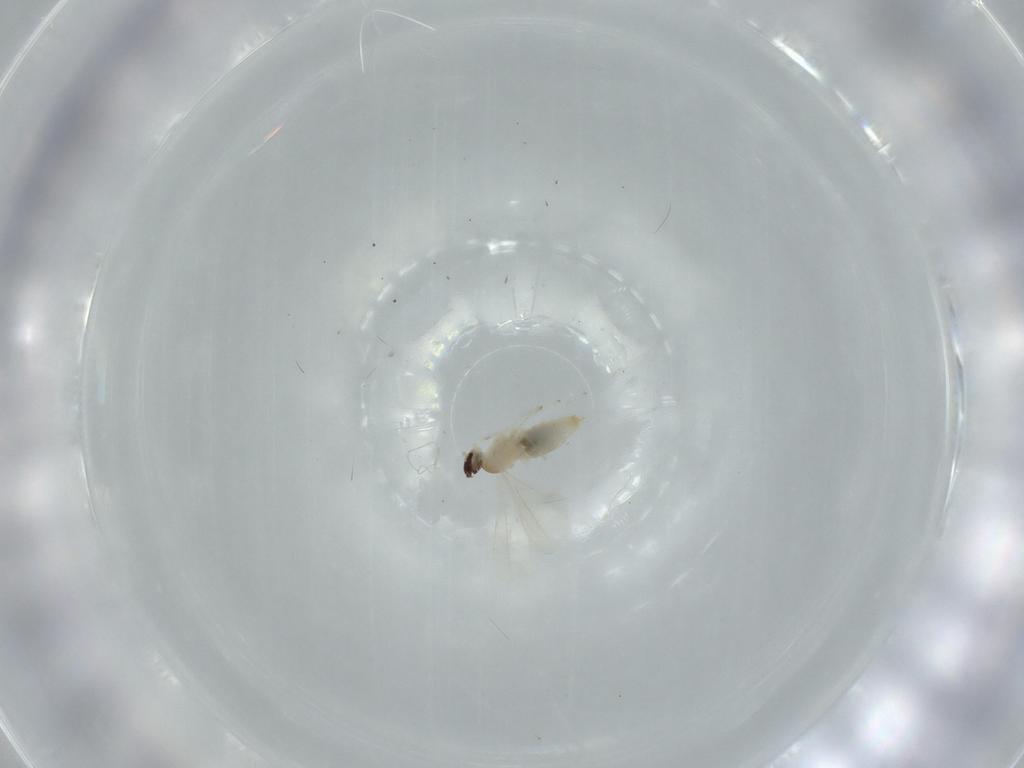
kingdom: Animalia
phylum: Arthropoda
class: Insecta
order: Diptera
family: Cecidomyiidae
